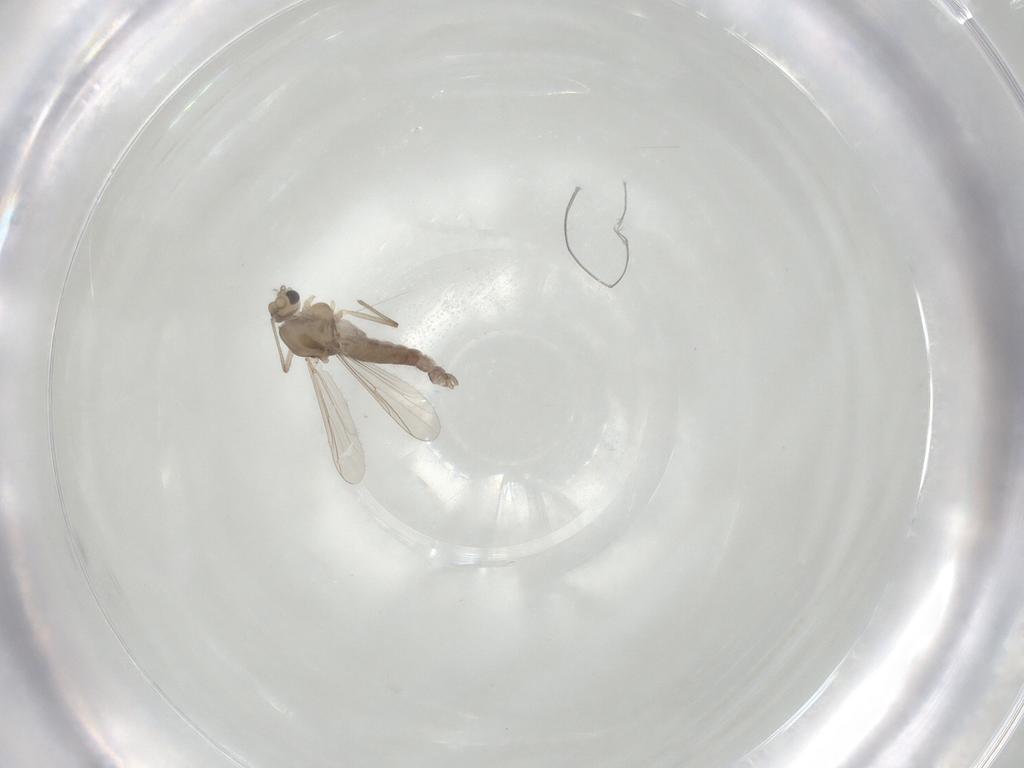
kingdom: Animalia
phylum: Arthropoda
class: Insecta
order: Diptera
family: Chironomidae
